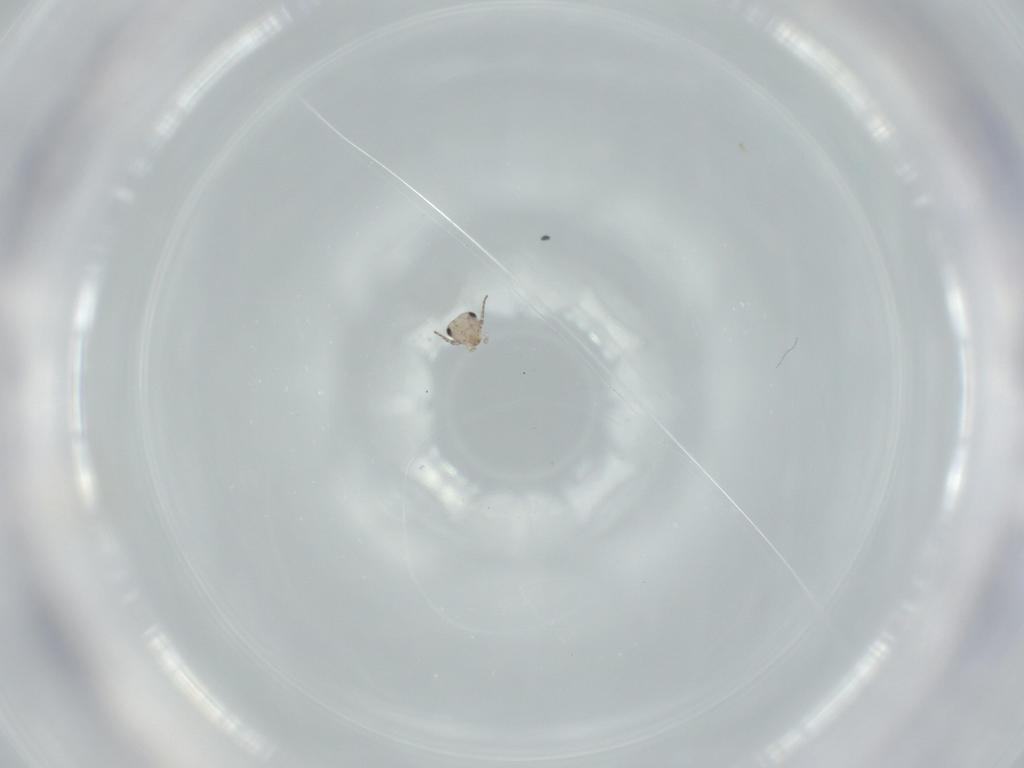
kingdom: Animalia
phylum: Arthropoda
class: Insecta
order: Psocodea
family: Lepidopsocidae
